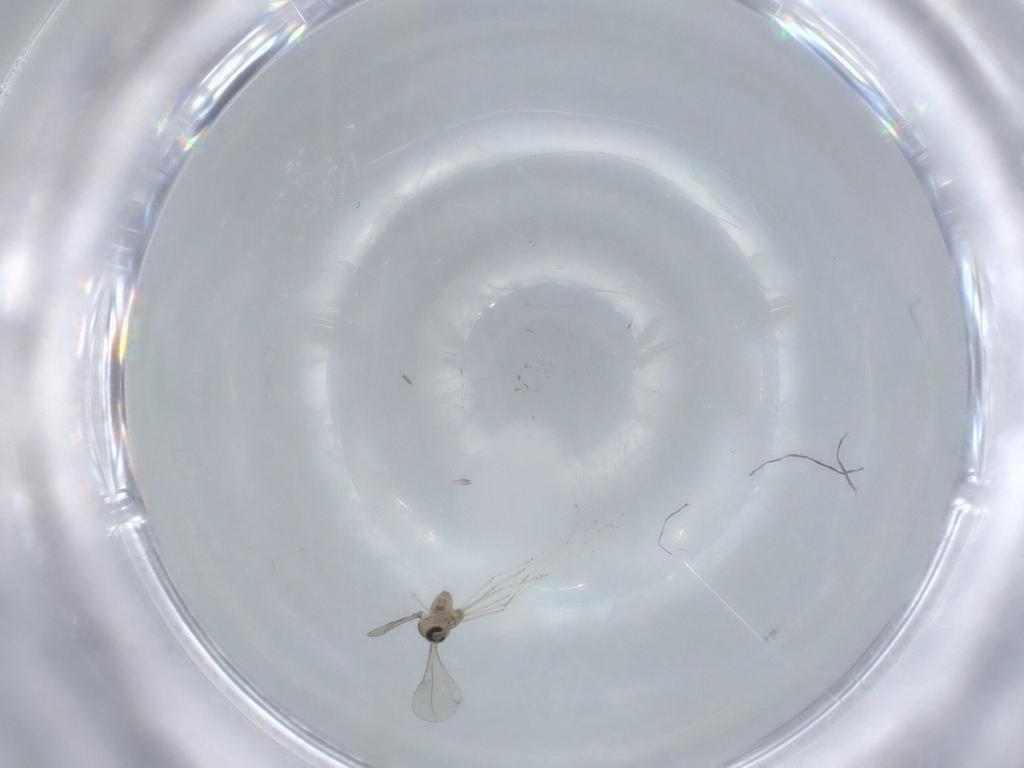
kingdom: Animalia
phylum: Arthropoda
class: Insecta
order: Diptera
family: Cecidomyiidae
